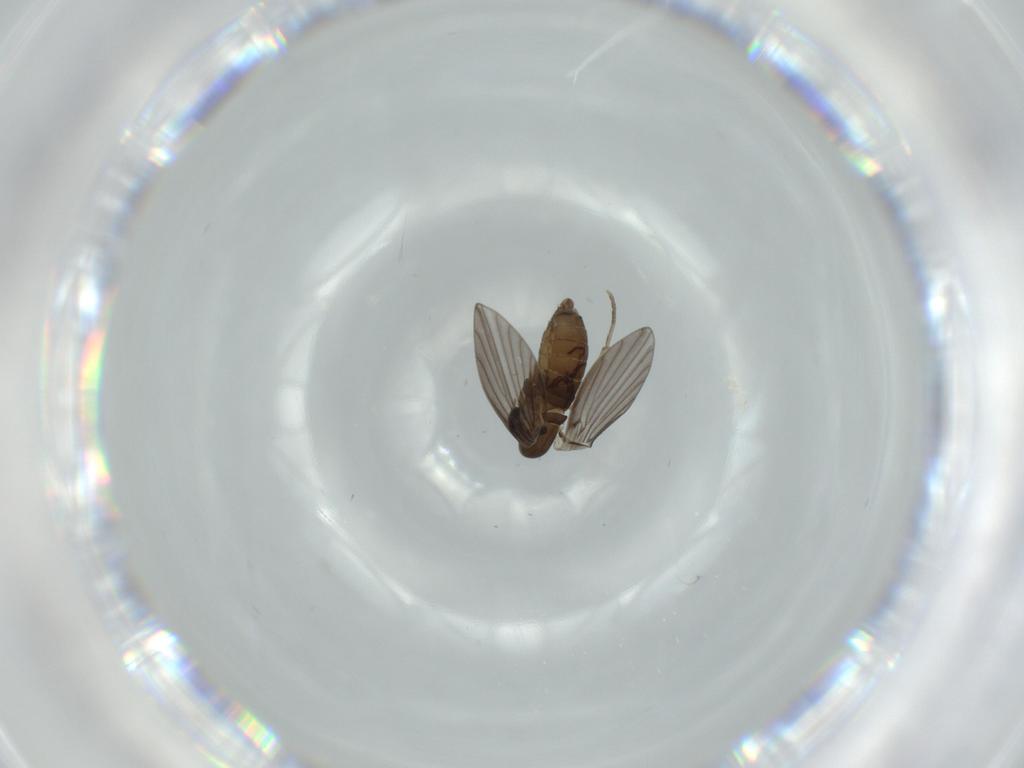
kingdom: Animalia
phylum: Arthropoda
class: Insecta
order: Diptera
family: Psychodidae
